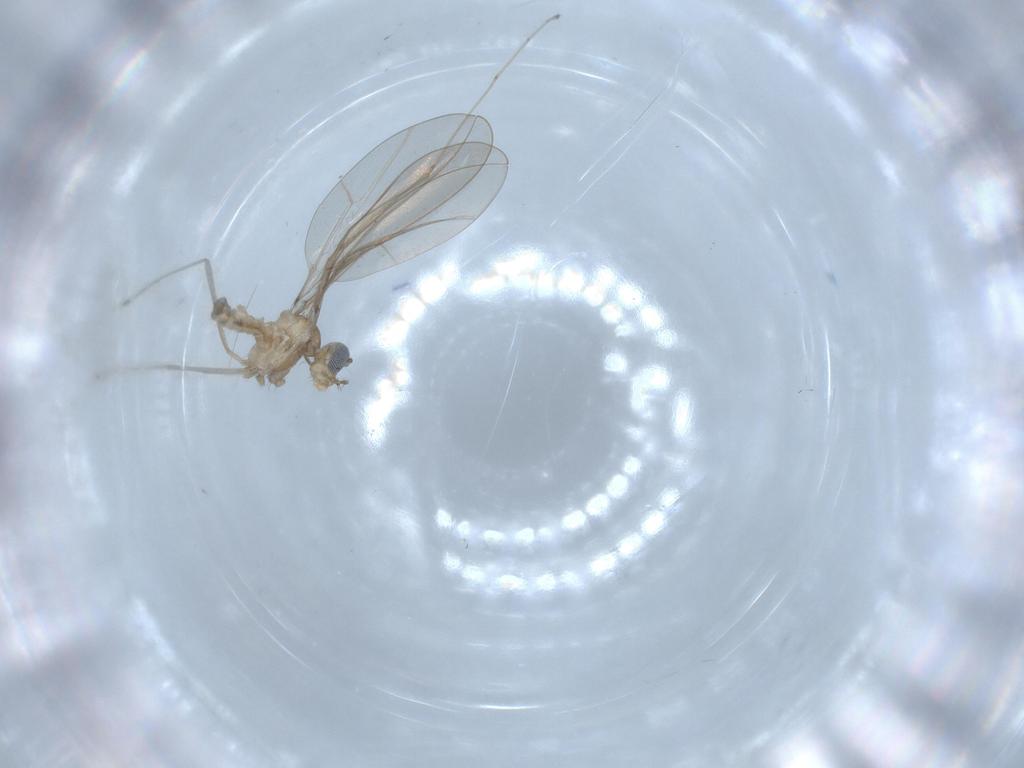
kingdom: Animalia
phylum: Arthropoda
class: Insecta
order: Diptera
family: Cecidomyiidae
